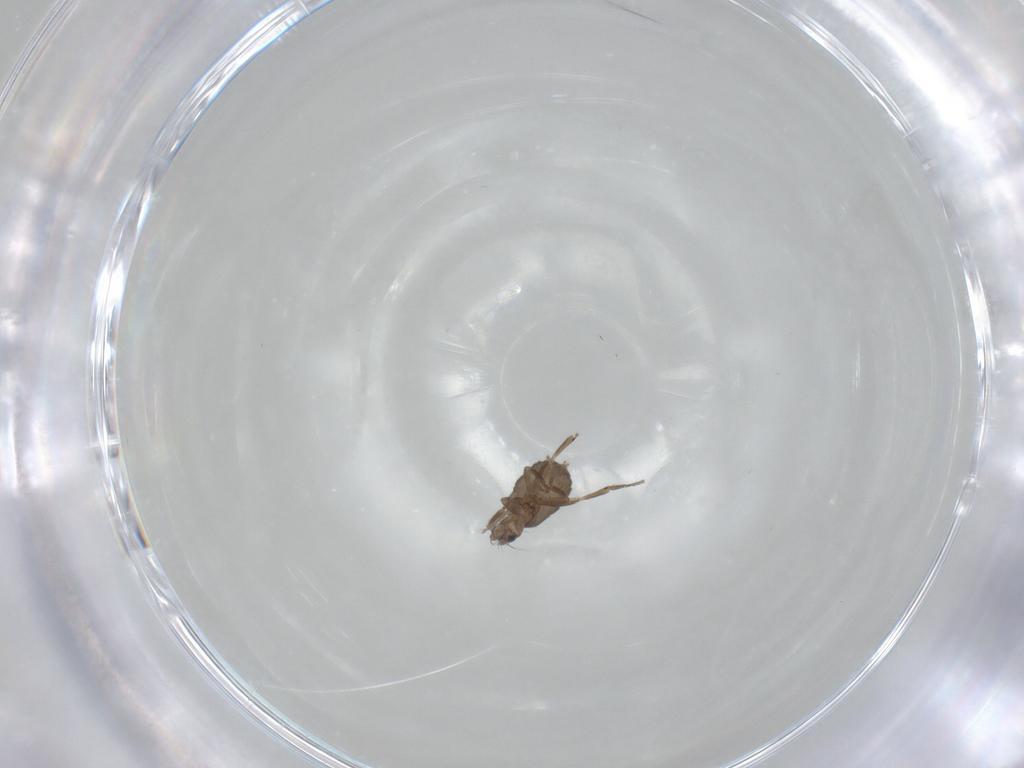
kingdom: Animalia
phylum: Arthropoda
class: Insecta
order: Diptera
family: Phoridae
